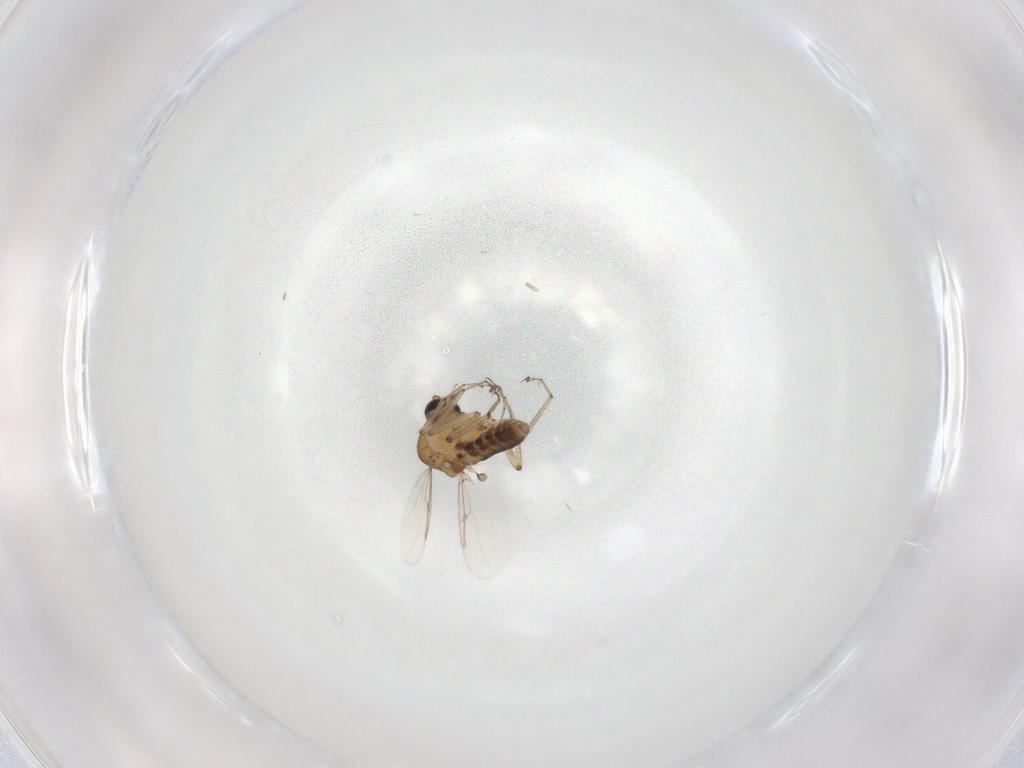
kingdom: Animalia
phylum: Arthropoda
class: Insecta
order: Diptera
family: Ceratopogonidae
